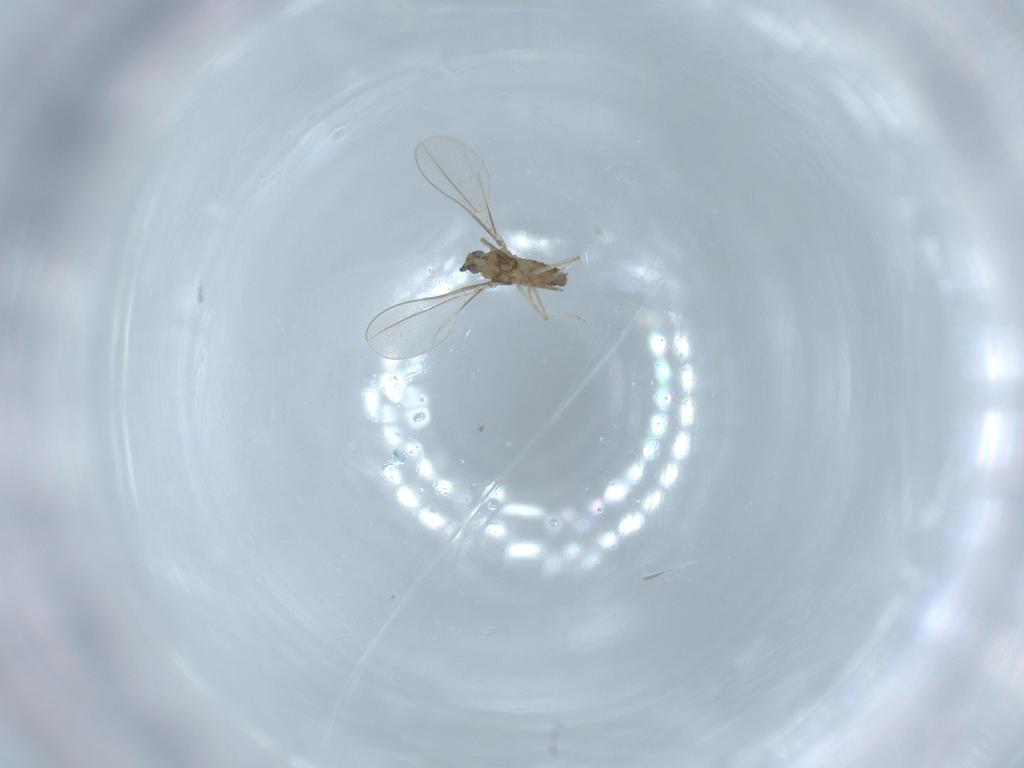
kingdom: Animalia
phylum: Arthropoda
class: Insecta
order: Diptera
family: Cecidomyiidae
